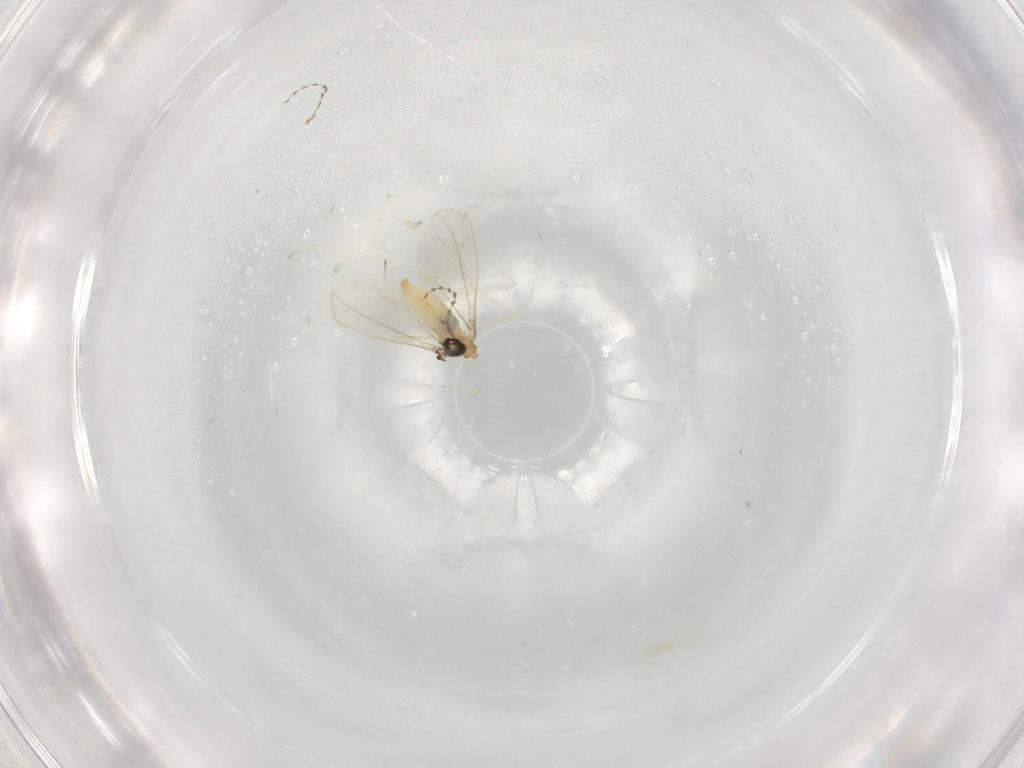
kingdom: Animalia
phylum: Arthropoda
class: Insecta
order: Diptera
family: Cecidomyiidae
